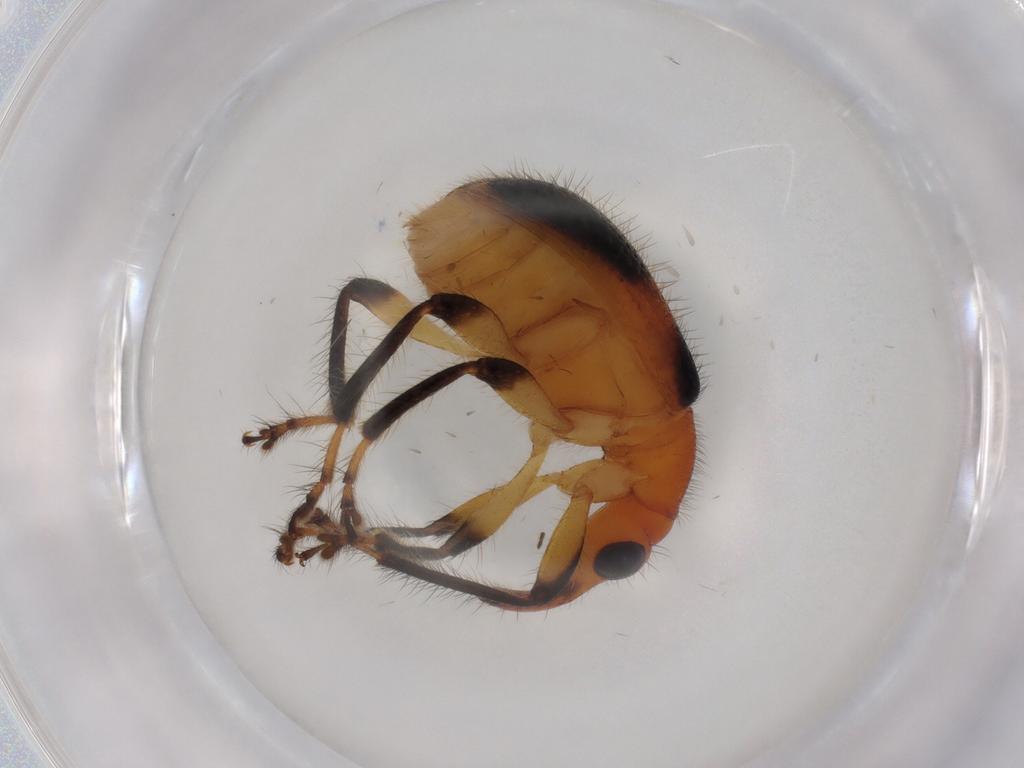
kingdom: Animalia
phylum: Arthropoda
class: Insecta
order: Coleoptera
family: Attelabidae
